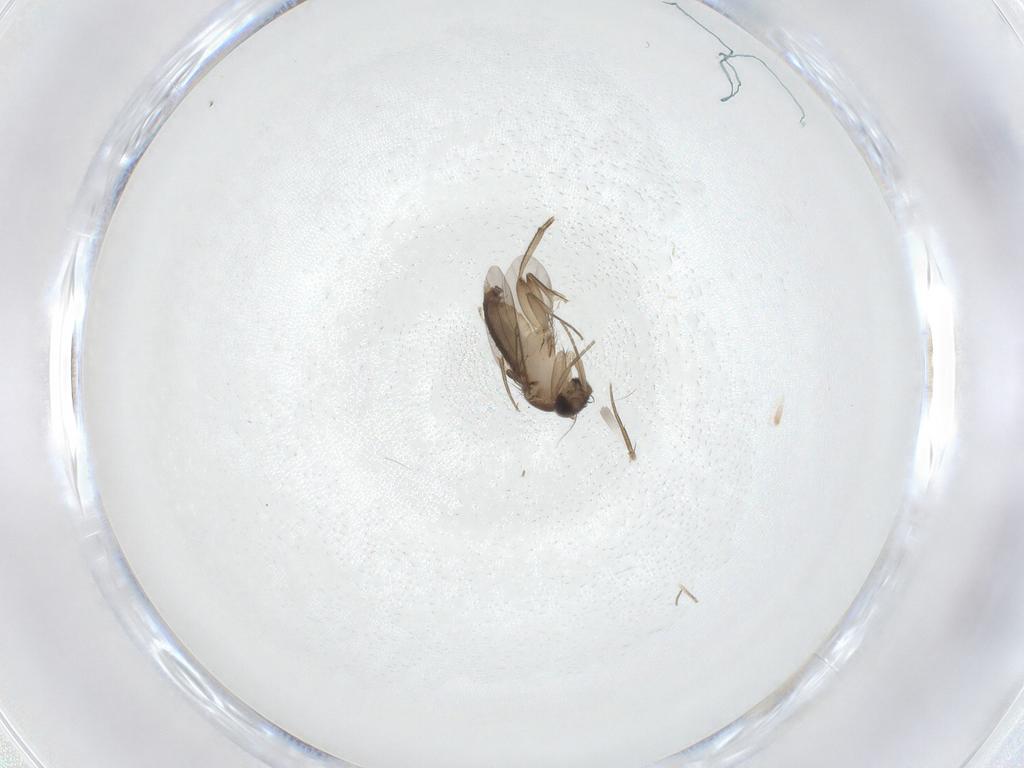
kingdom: Animalia
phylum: Arthropoda
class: Insecta
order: Diptera
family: Phoridae
